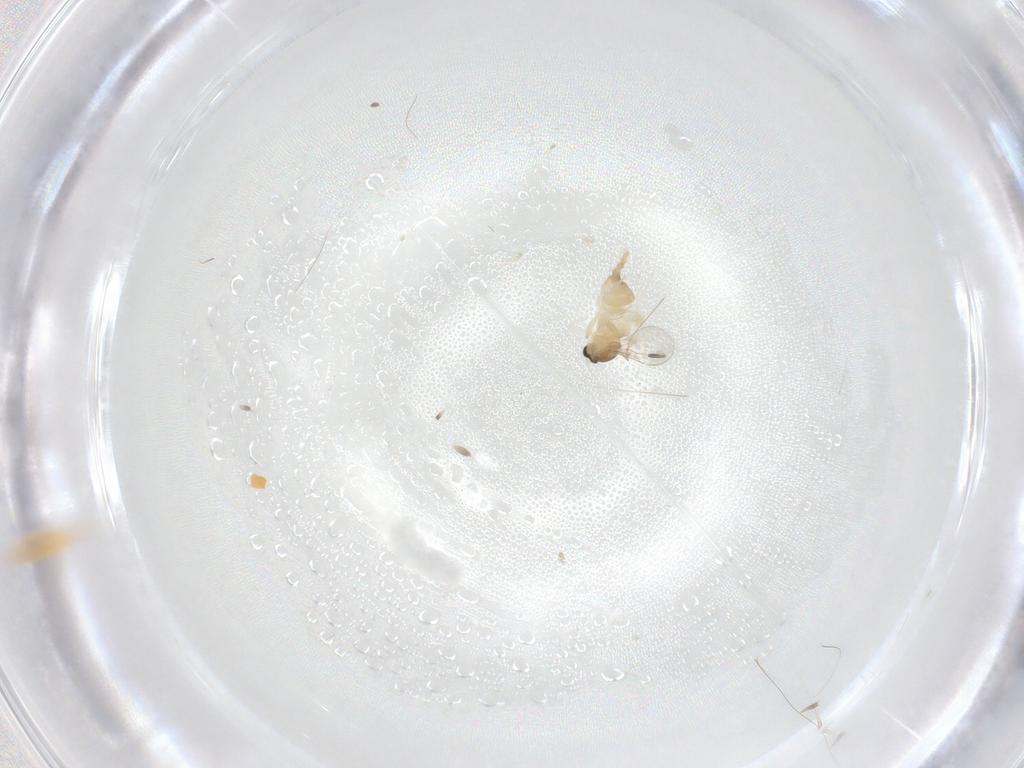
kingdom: Animalia
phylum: Arthropoda
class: Insecta
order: Diptera
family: Cecidomyiidae
